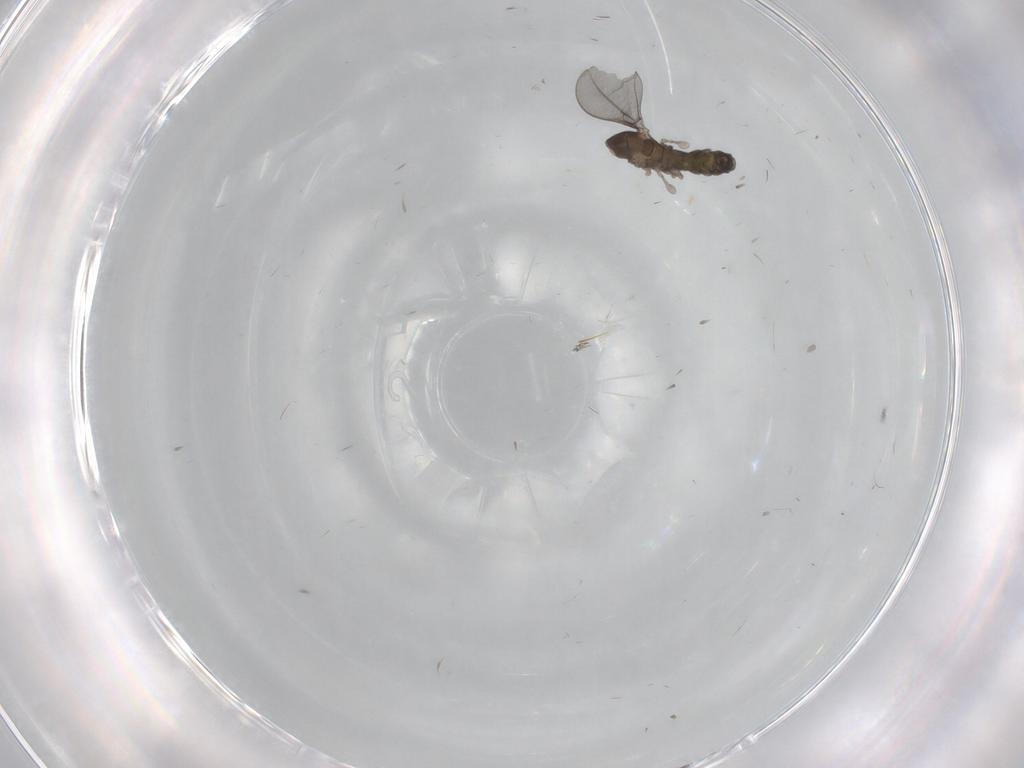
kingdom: Animalia
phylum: Arthropoda
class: Insecta
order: Diptera
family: Cecidomyiidae
